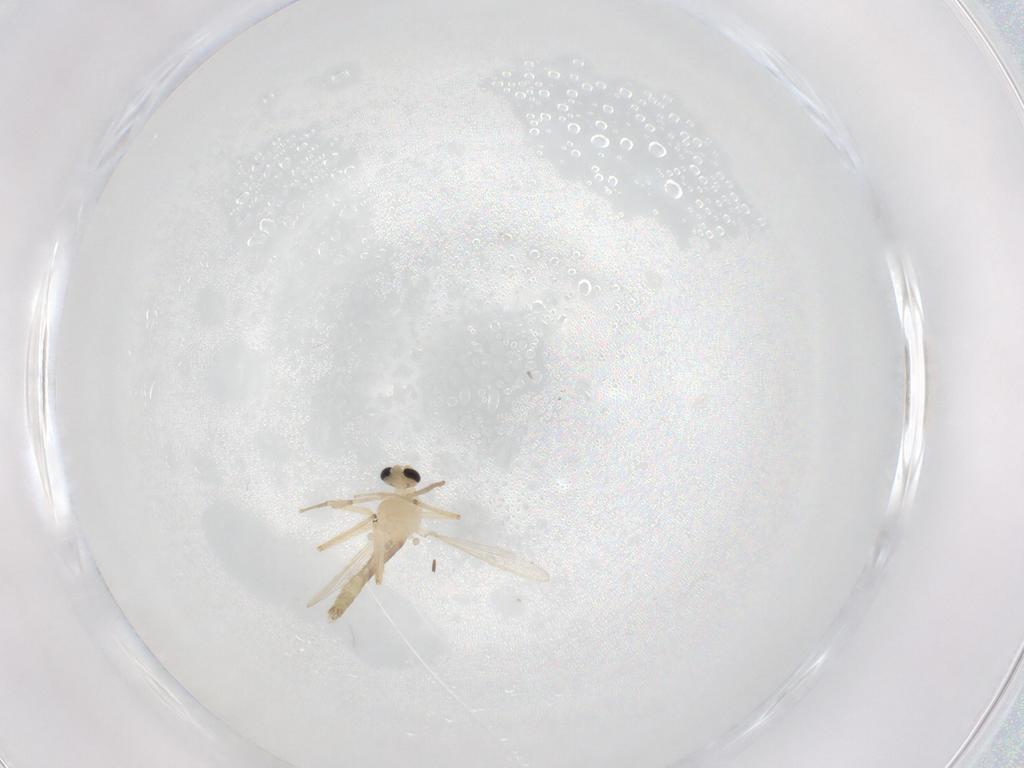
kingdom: Animalia
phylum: Arthropoda
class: Insecta
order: Diptera
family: Chironomidae
